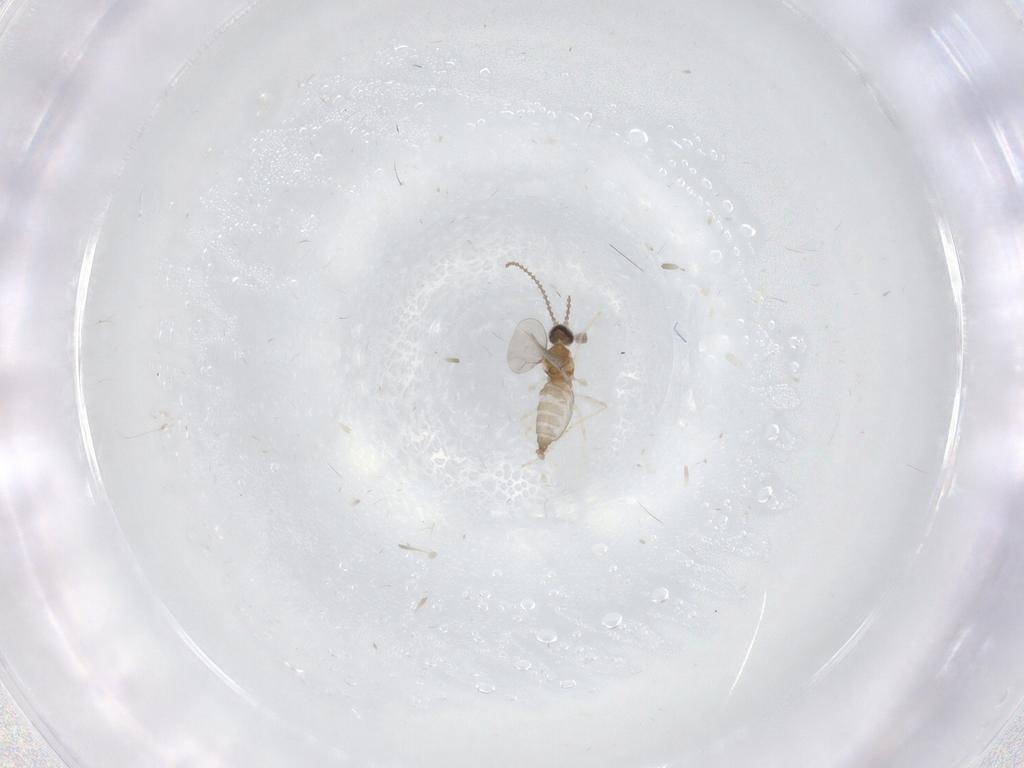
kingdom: Animalia
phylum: Arthropoda
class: Insecta
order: Diptera
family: Cecidomyiidae
